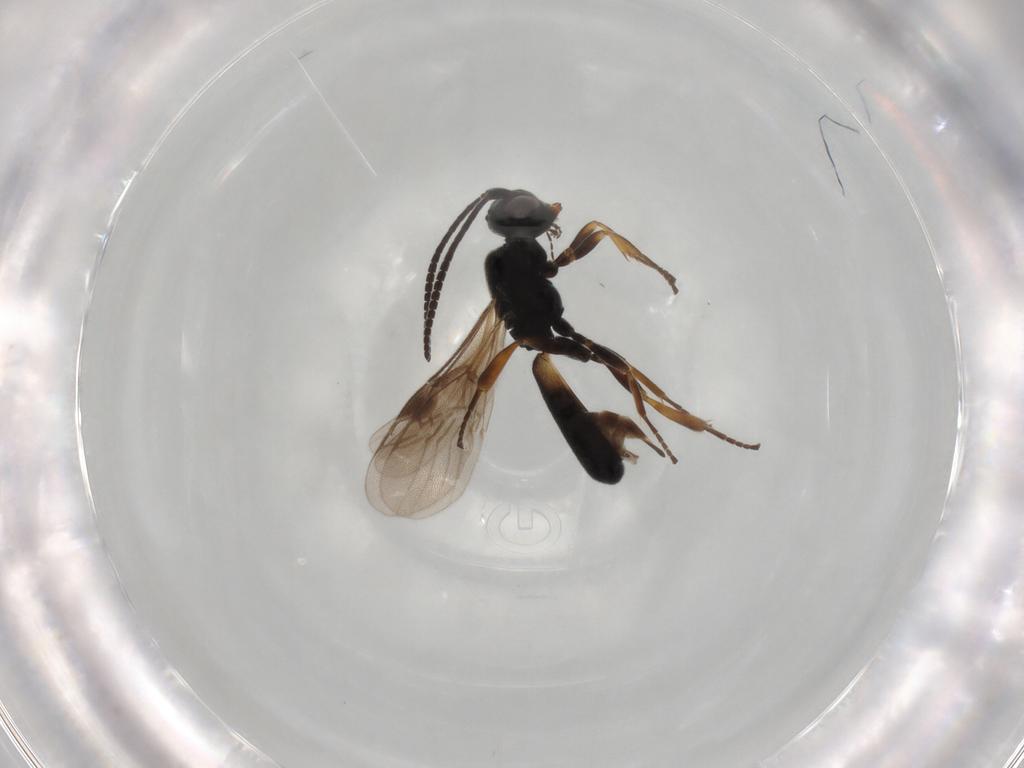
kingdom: Animalia
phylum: Arthropoda
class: Insecta
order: Hymenoptera
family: Braconidae
